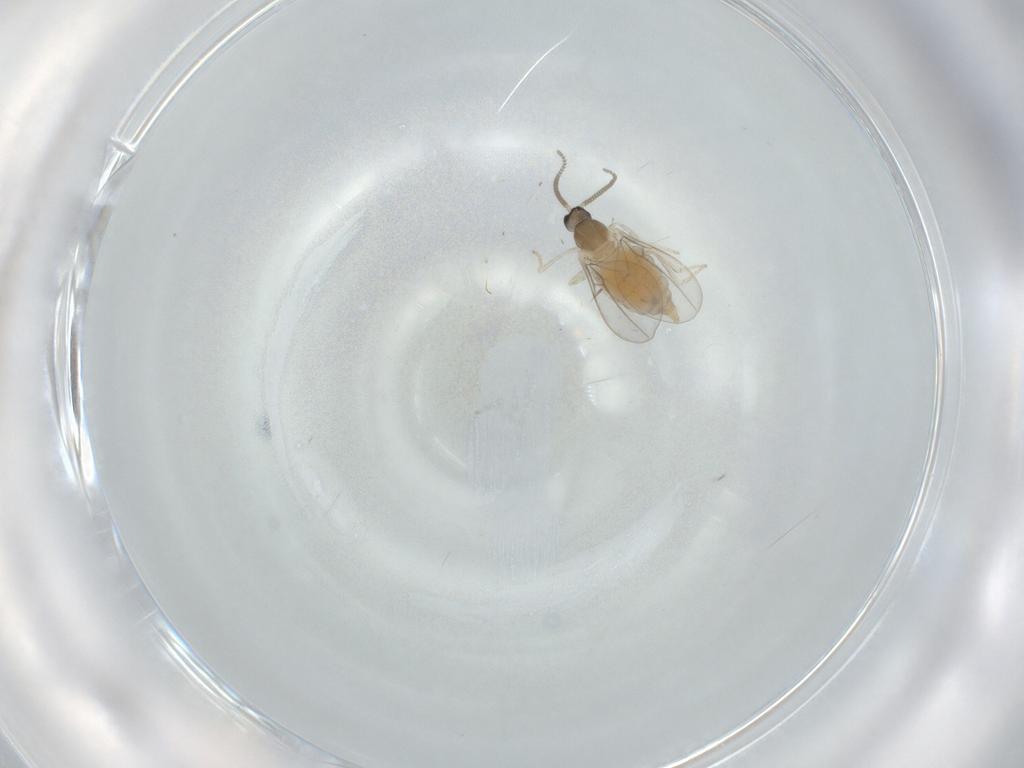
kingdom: Animalia
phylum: Arthropoda
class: Insecta
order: Diptera
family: Cecidomyiidae
